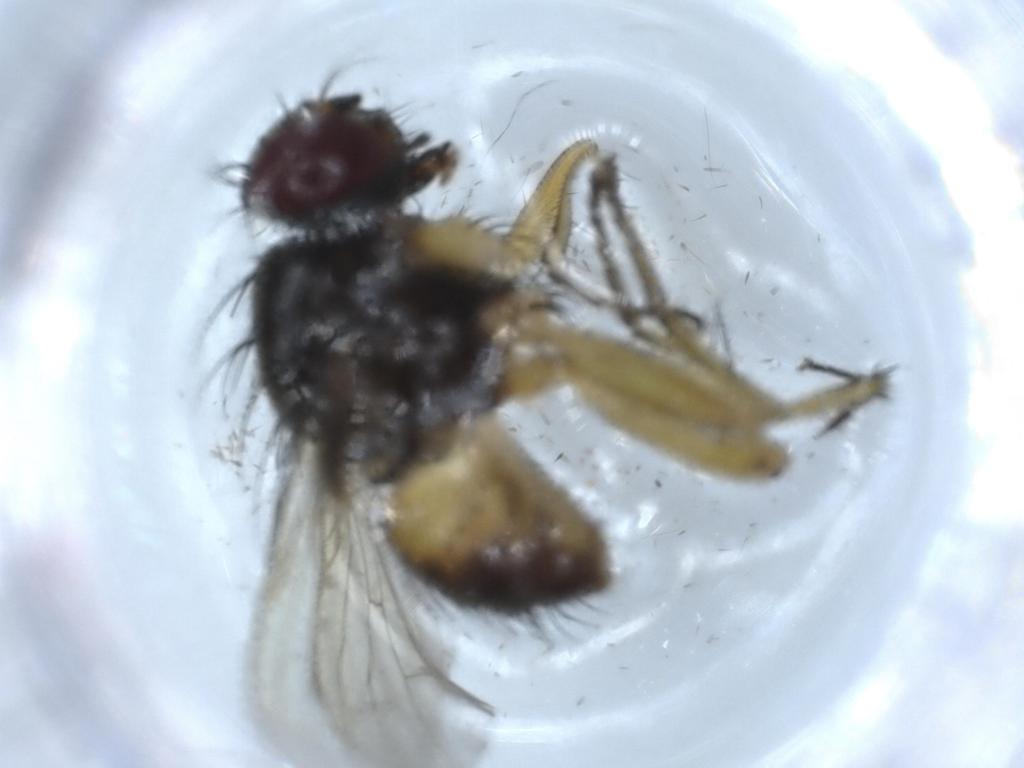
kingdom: Animalia
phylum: Arthropoda
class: Insecta
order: Diptera
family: Muscidae
